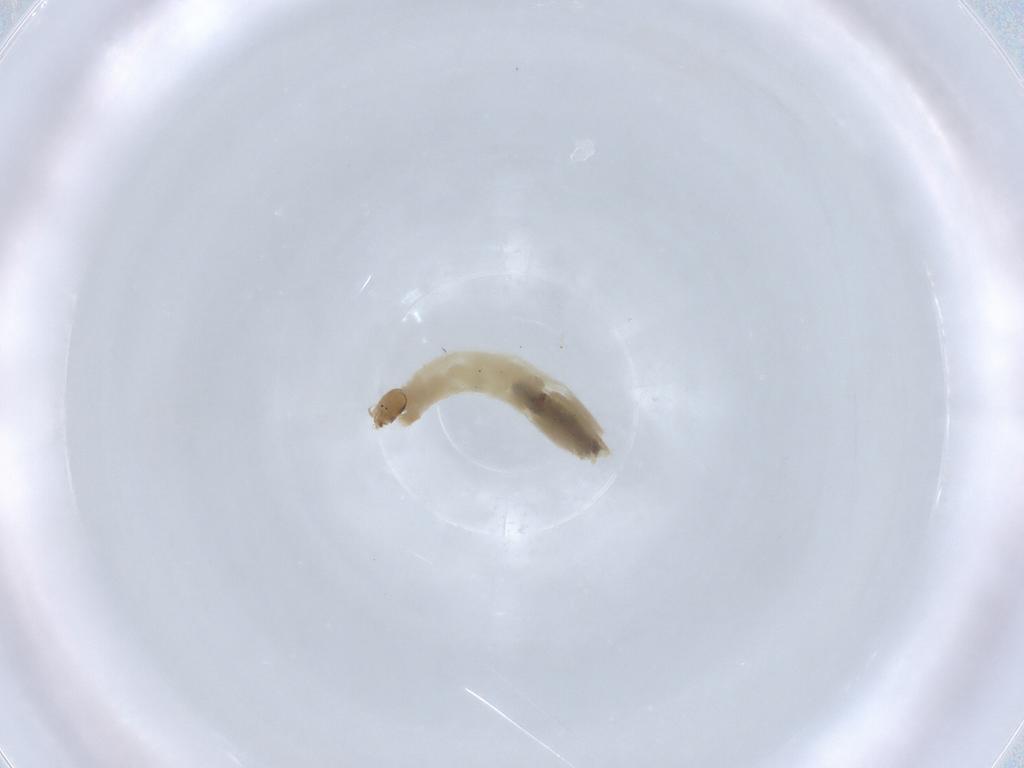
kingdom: Animalia
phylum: Arthropoda
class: Insecta
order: Diptera
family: Chironomidae
